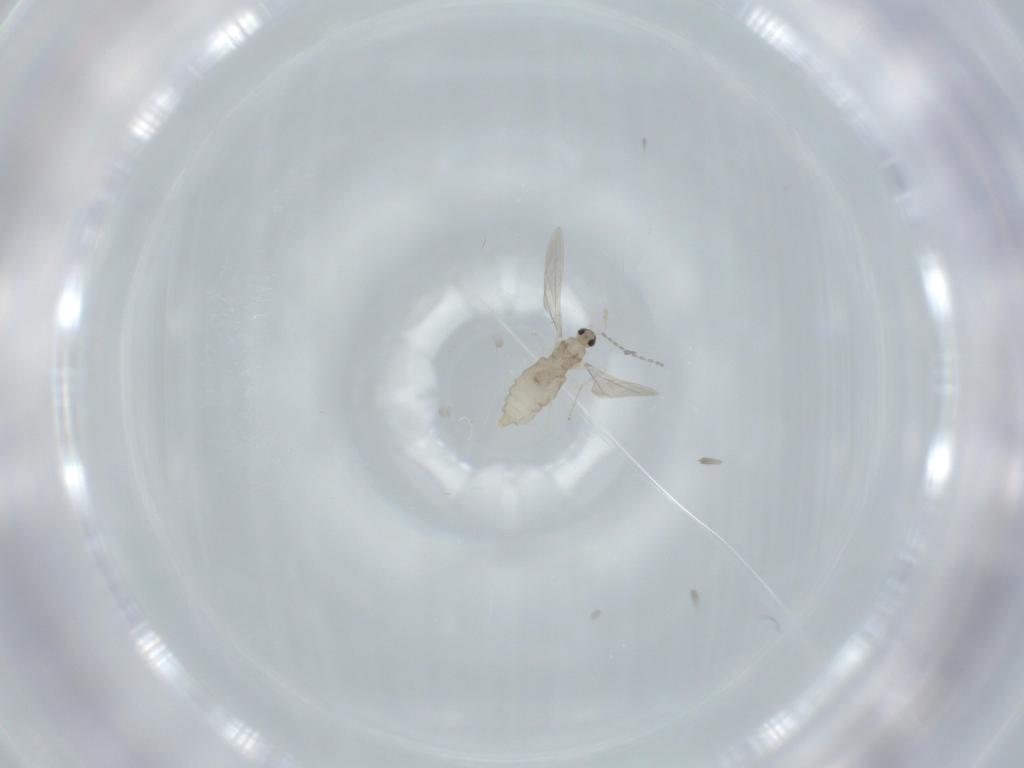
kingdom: Animalia
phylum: Arthropoda
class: Insecta
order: Diptera
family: Cecidomyiidae
